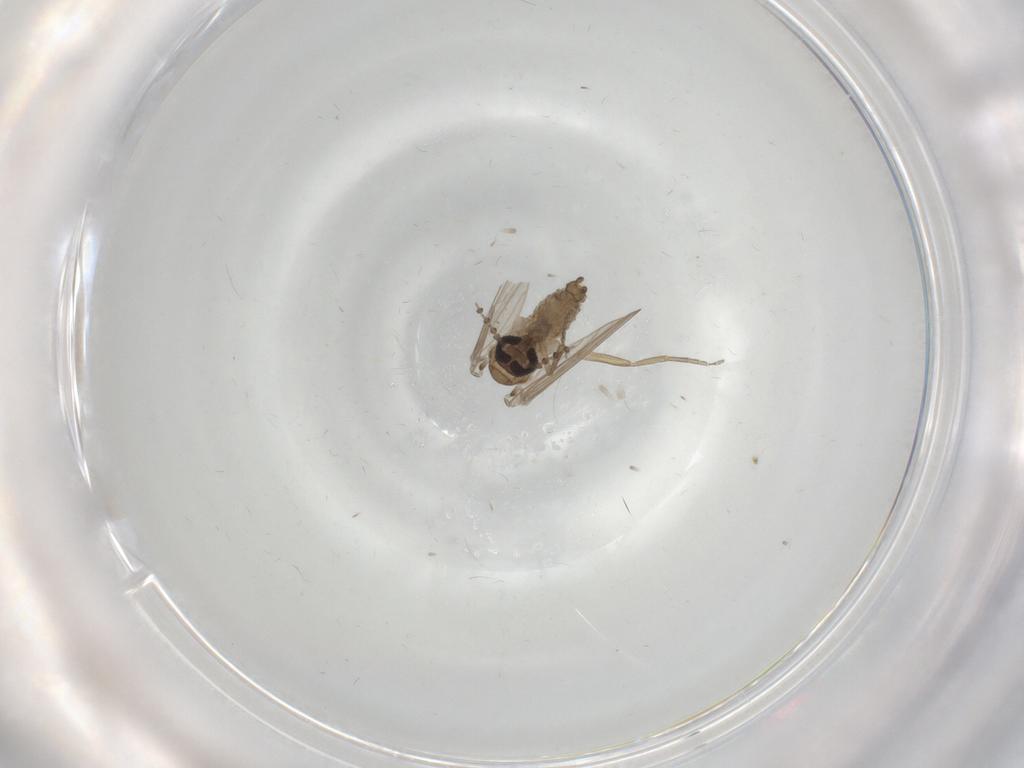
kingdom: Animalia
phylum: Arthropoda
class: Insecta
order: Diptera
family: Psychodidae
